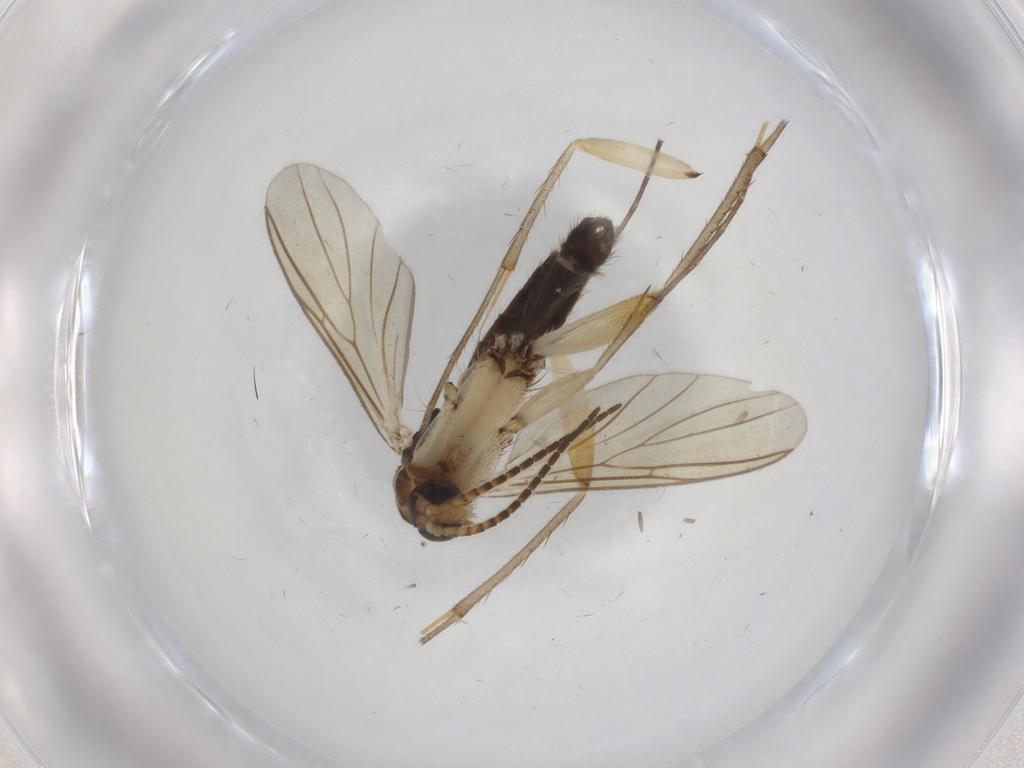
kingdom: Animalia
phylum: Arthropoda
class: Insecta
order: Diptera
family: Mycetophilidae
